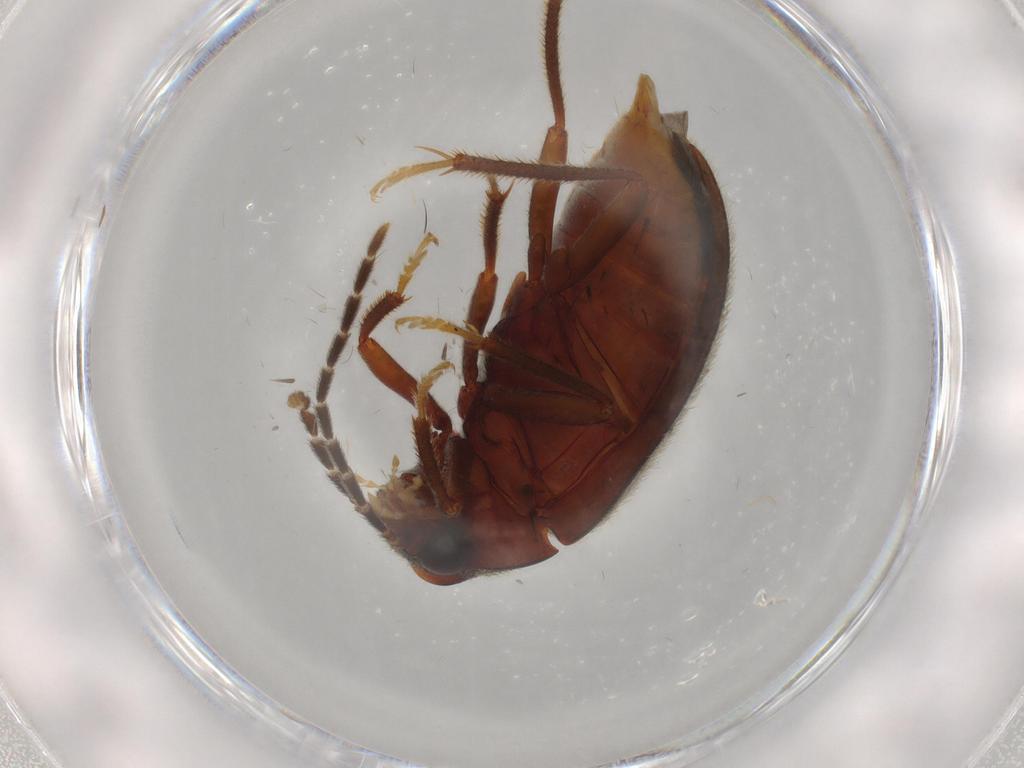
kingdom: Animalia
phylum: Arthropoda
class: Insecta
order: Coleoptera
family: Ptilodactylidae
